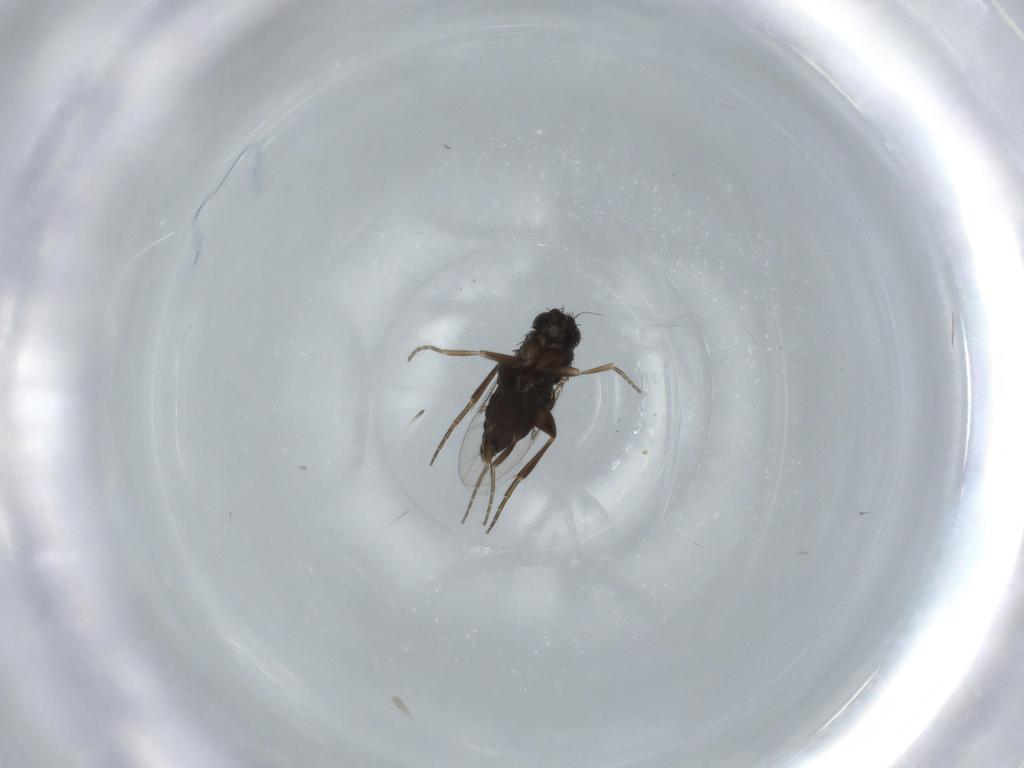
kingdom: Animalia
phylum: Arthropoda
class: Insecta
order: Diptera
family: Phoridae
